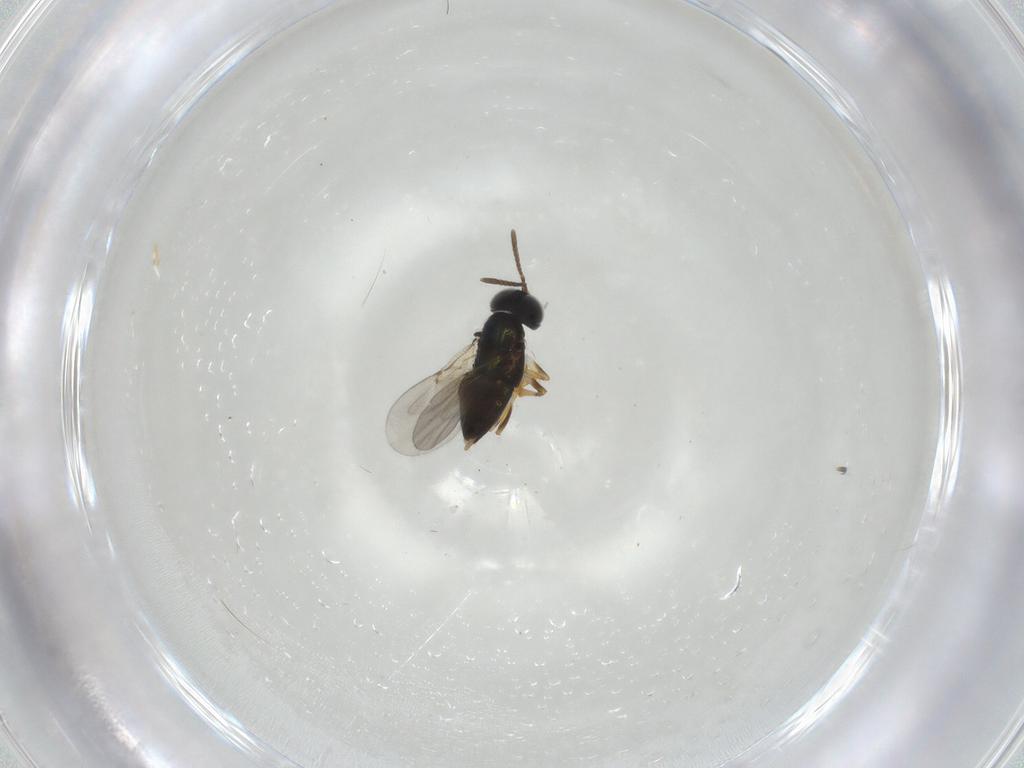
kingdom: Animalia
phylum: Arthropoda
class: Insecta
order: Hymenoptera
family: Encyrtidae
